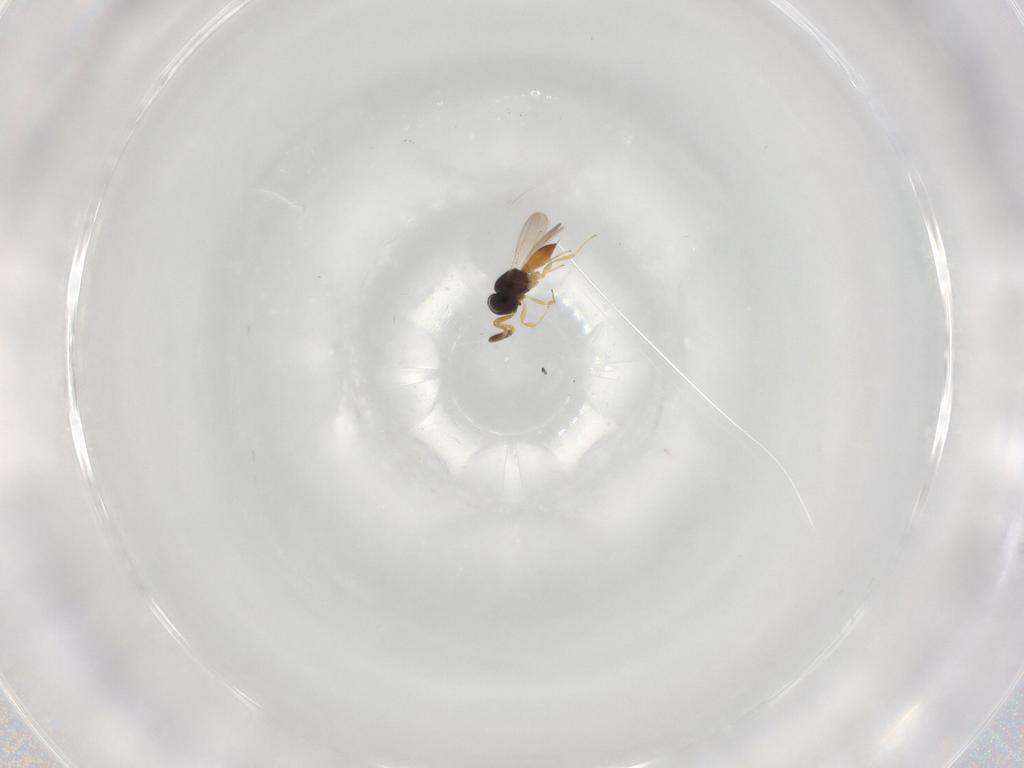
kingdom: Animalia
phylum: Arthropoda
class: Insecta
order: Hymenoptera
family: Scelionidae
